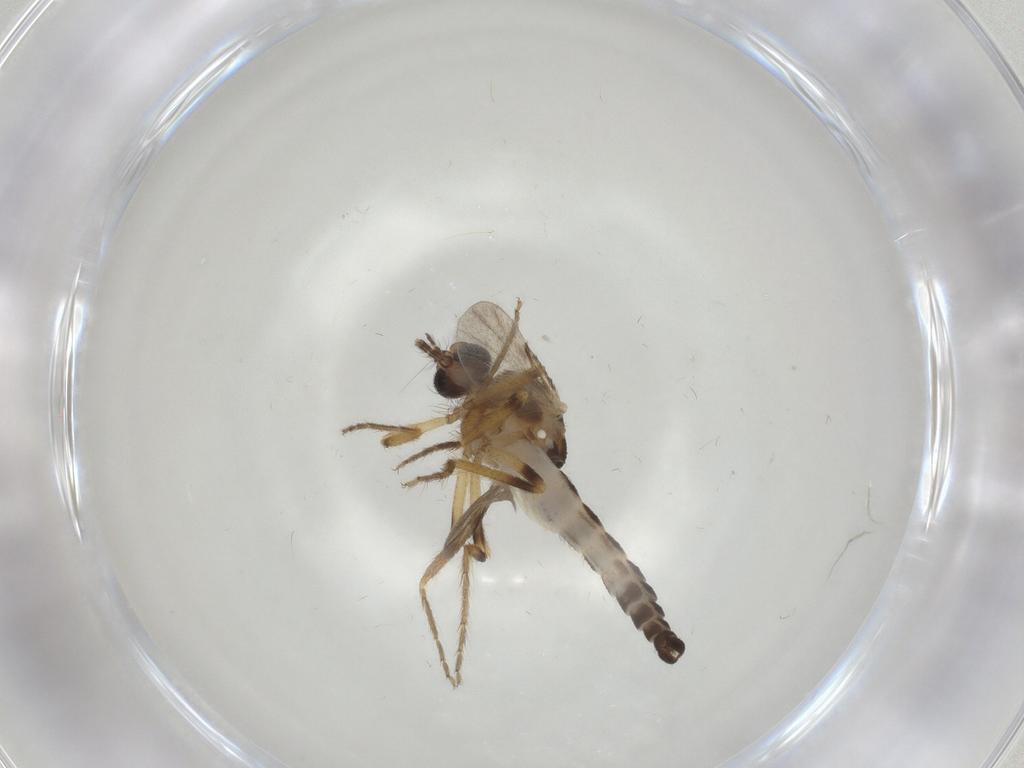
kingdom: Animalia
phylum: Arthropoda
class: Insecta
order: Diptera
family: Ceratopogonidae
